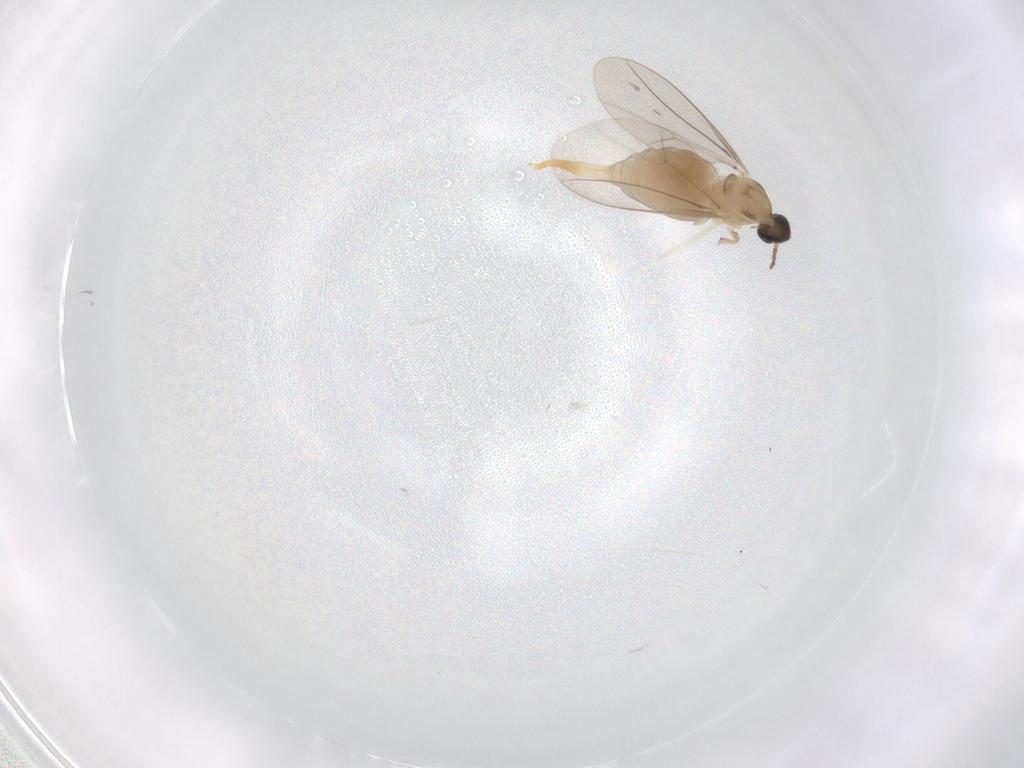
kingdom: Animalia
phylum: Arthropoda
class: Insecta
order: Diptera
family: Cecidomyiidae
